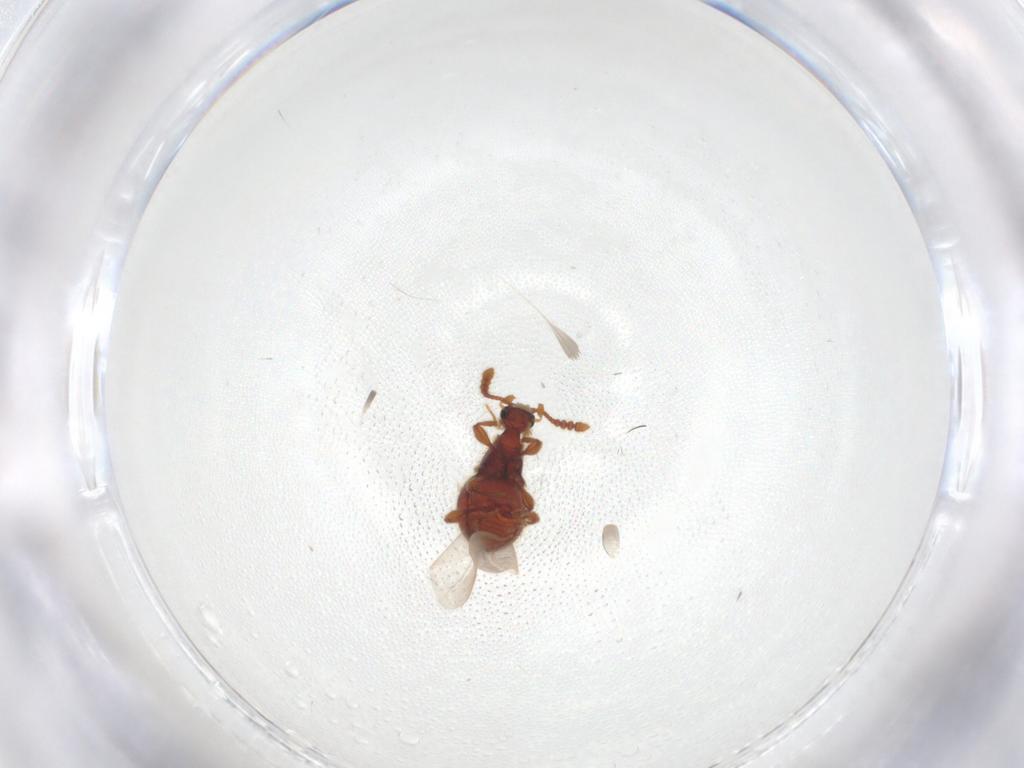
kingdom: Animalia
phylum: Arthropoda
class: Insecta
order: Coleoptera
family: Staphylinidae
